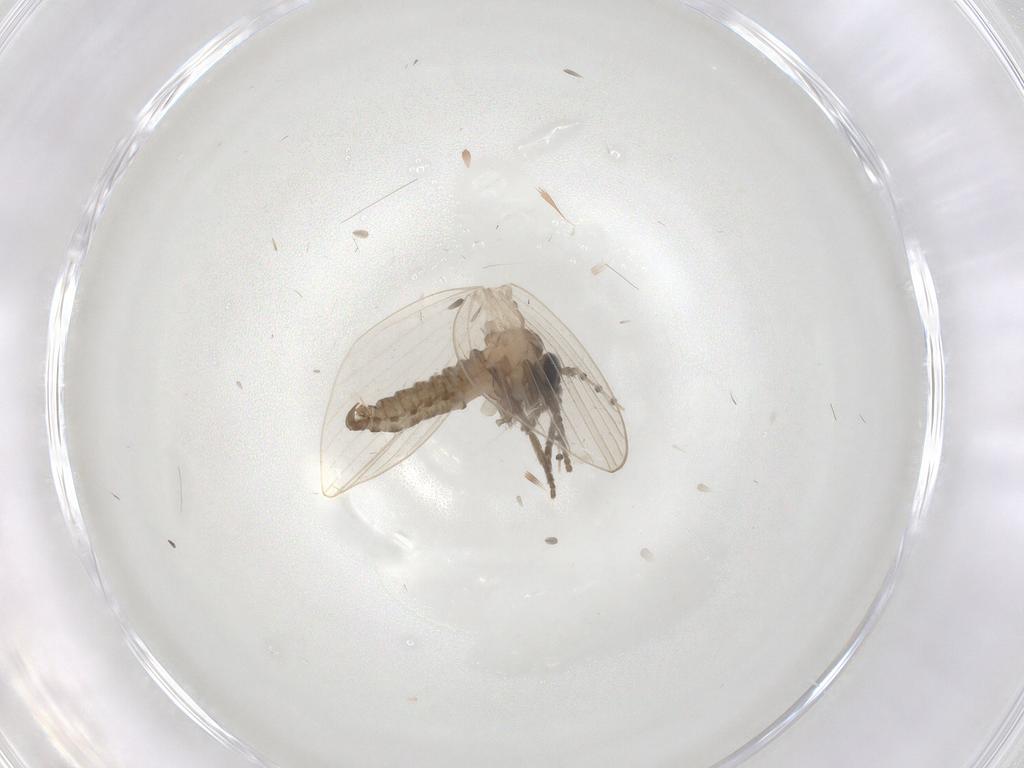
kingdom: Animalia
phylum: Arthropoda
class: Insecta
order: Diptera
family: Psychodidae
